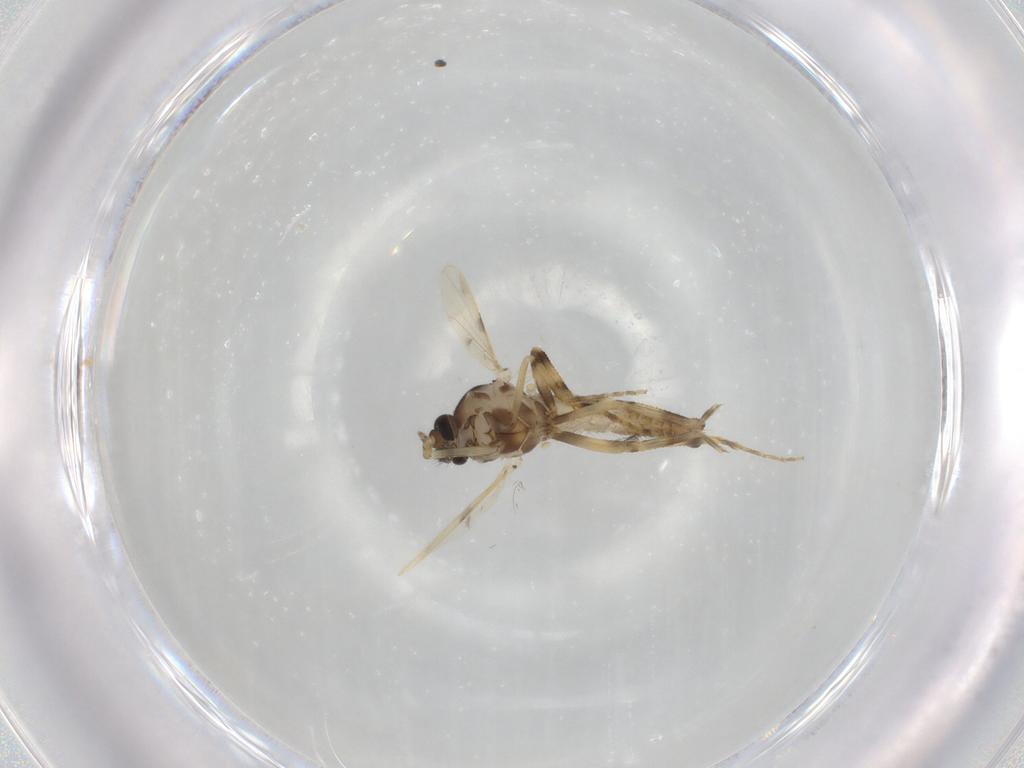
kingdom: Animalia
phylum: Arthropoda
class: Insecta
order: Diptera
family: Ceratopogonidae
